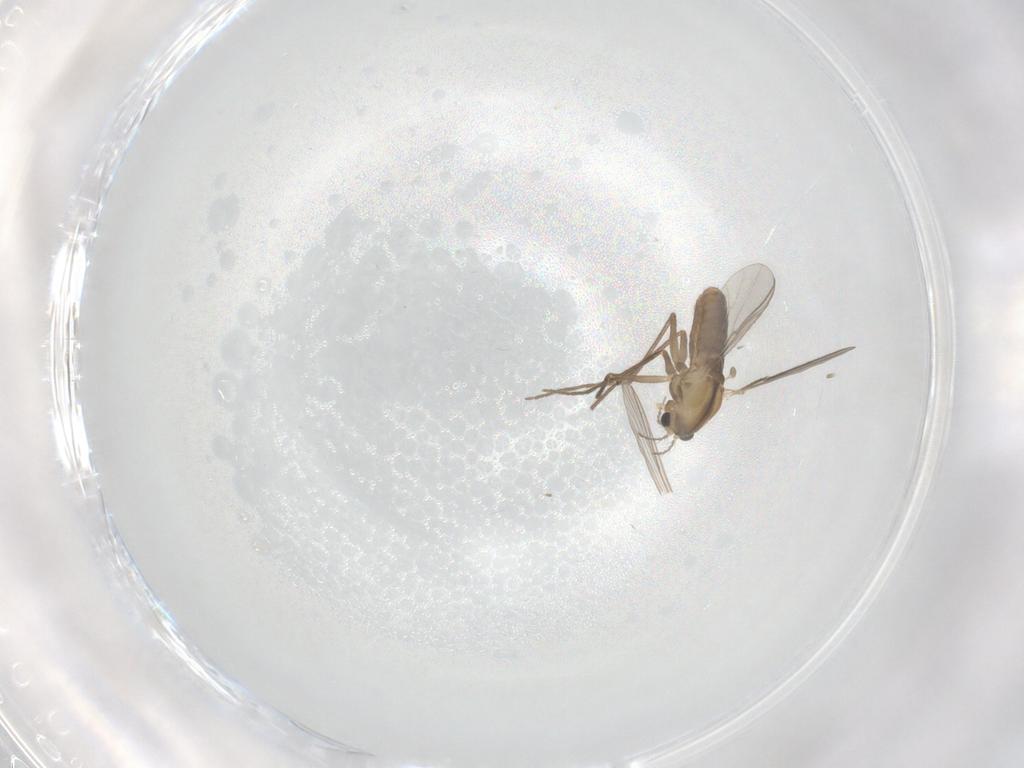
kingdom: Animalia
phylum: Arthropoda
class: Insecta
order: Diptera
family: Chironomidae
